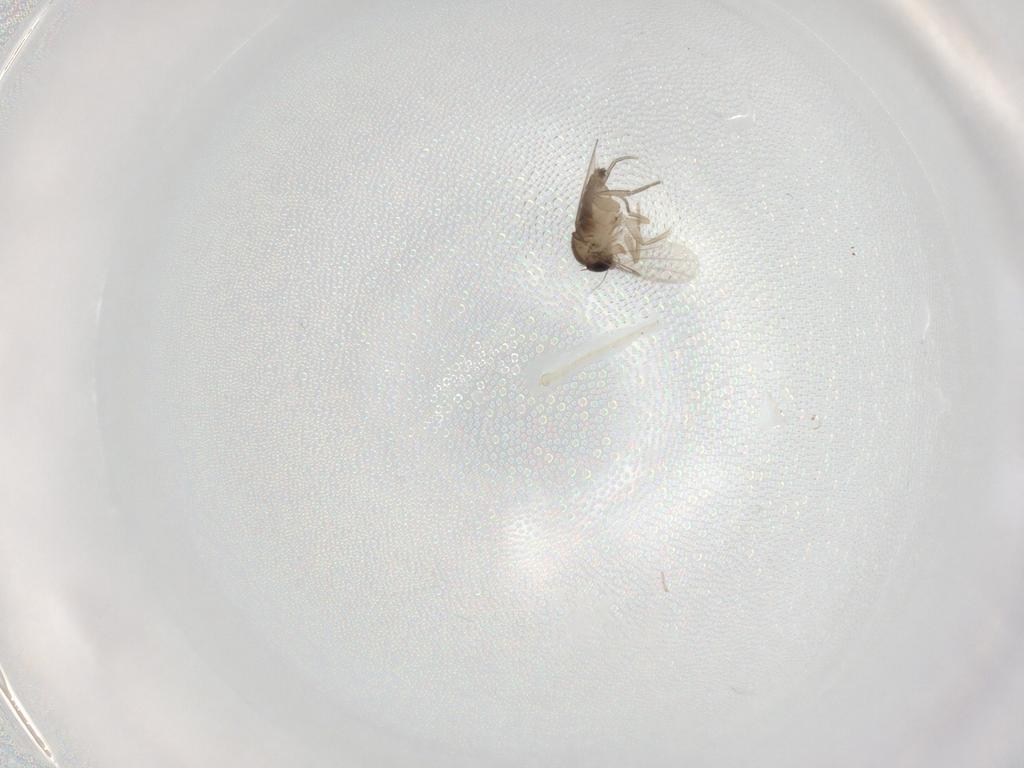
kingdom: Animalia
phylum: Arthropoda
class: Insecta
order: Diptera
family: Phoridae
